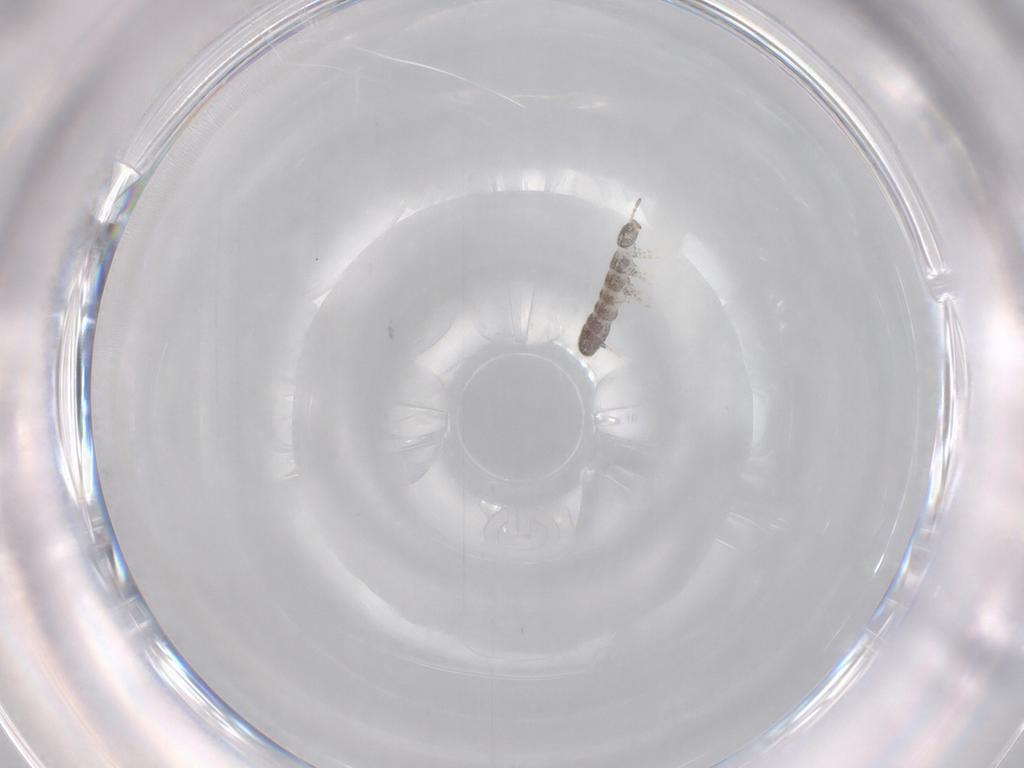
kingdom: Animalia
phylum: Arthropoda
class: Collembola
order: Entomobryomorpha
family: Isotomidae
